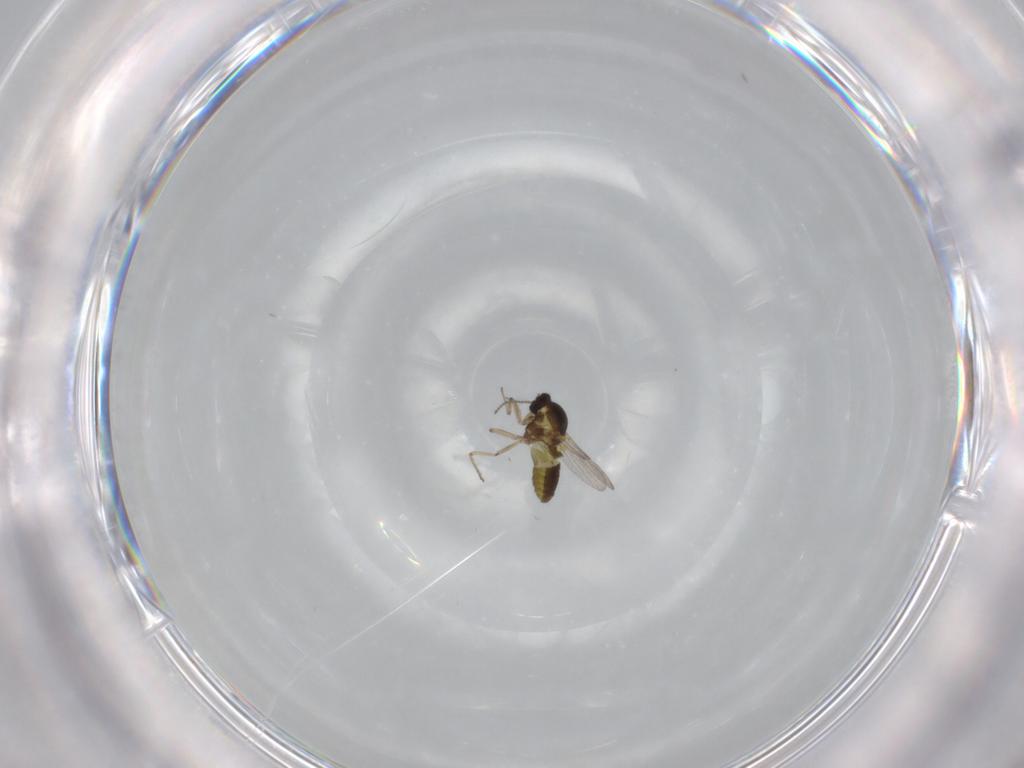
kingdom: Animalia
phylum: Arthropoda
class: Insecta
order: Diptera
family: Ceratopogonidae
